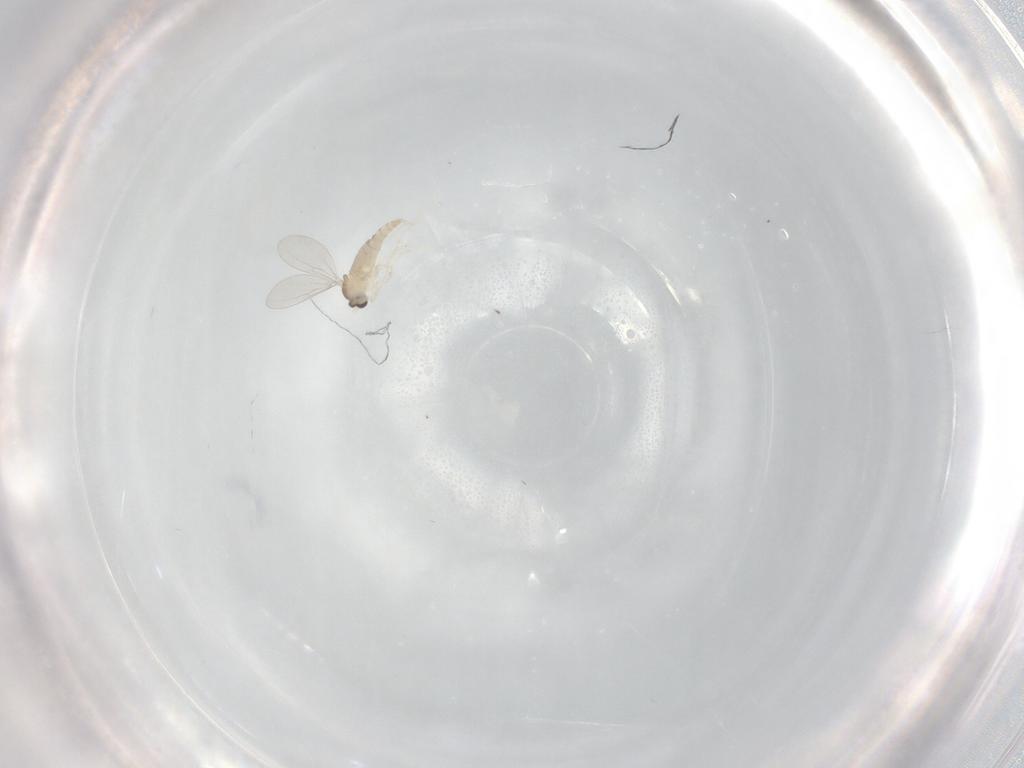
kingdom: Animalia
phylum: Arthropoda
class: Insecta
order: Diptera
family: Cecidomyiidae
